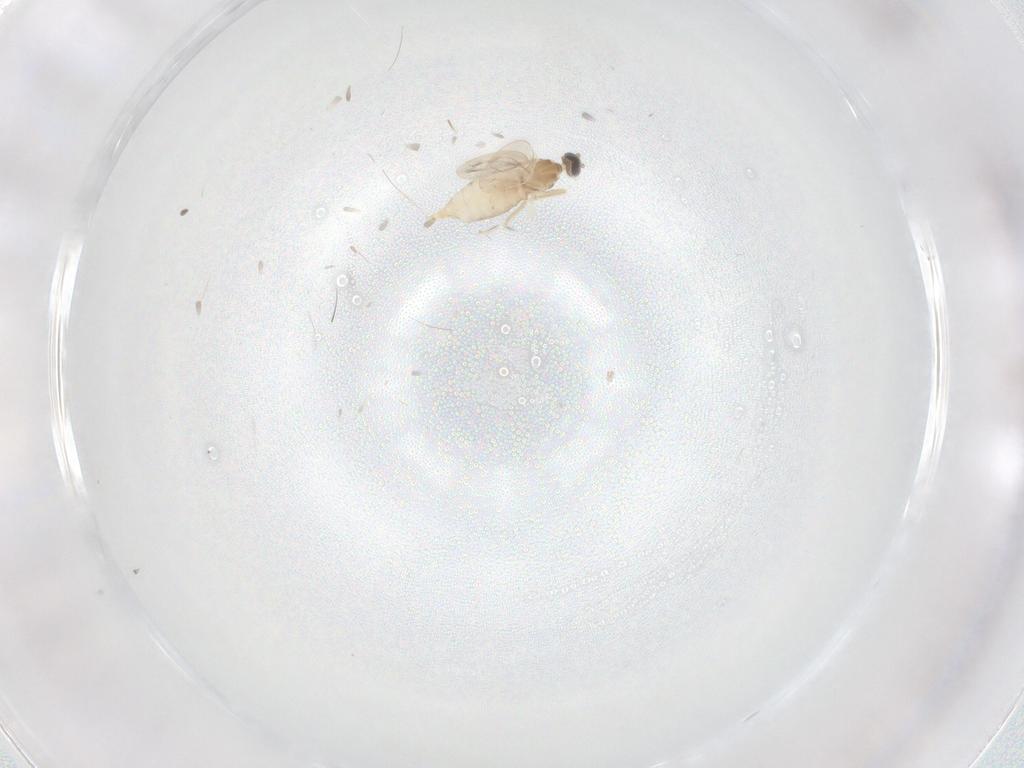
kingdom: Animalia
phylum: Arthropoda
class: Insecta
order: Diptera
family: Cecidomyiidae
